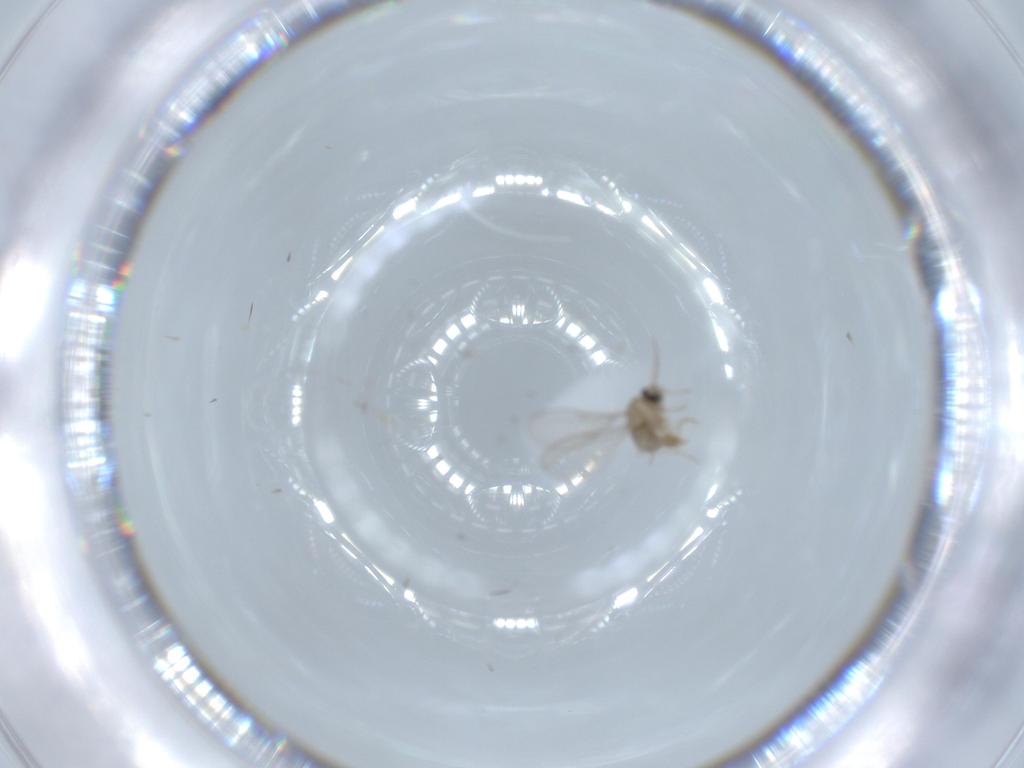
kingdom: Animalia
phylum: Arthropoda
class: Insecta
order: Diptera
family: Cecidomyiidae
